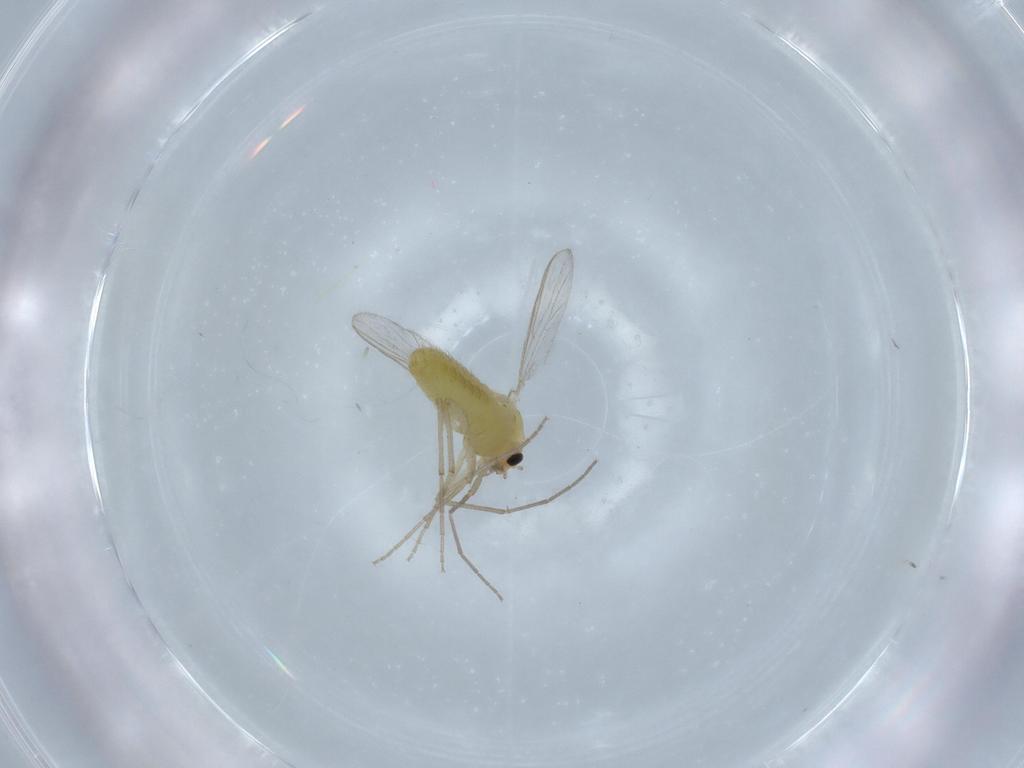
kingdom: Animalia
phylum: Arthropoda
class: Insecta
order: Diptera
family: Chironomidae
